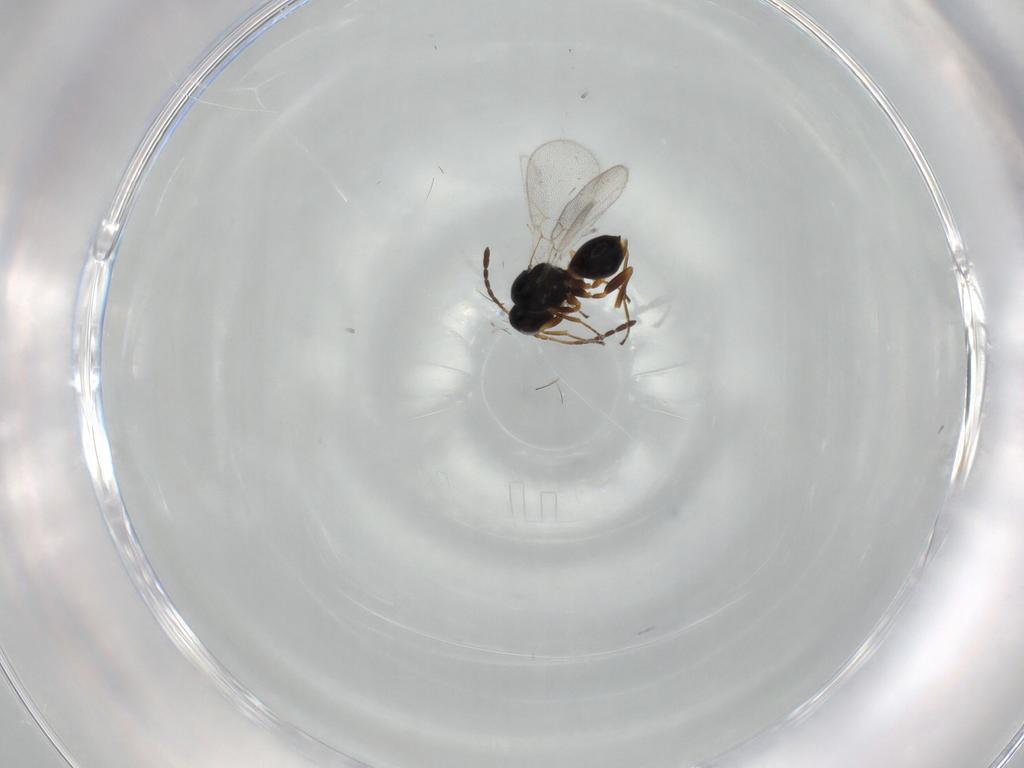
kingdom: Animalia
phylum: Arthropoda
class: Insecta
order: Hymenoptera
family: Figitidae
